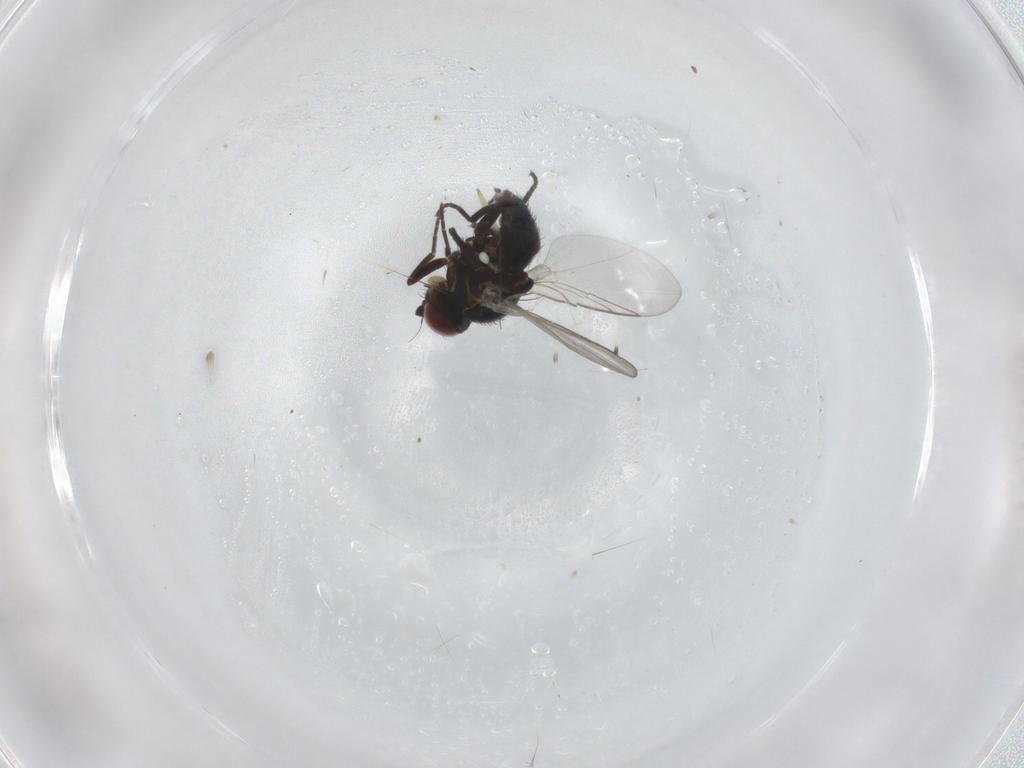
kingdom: Animalia
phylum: Arthropoda
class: Insecta
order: Diptera
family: Agromyzidae
